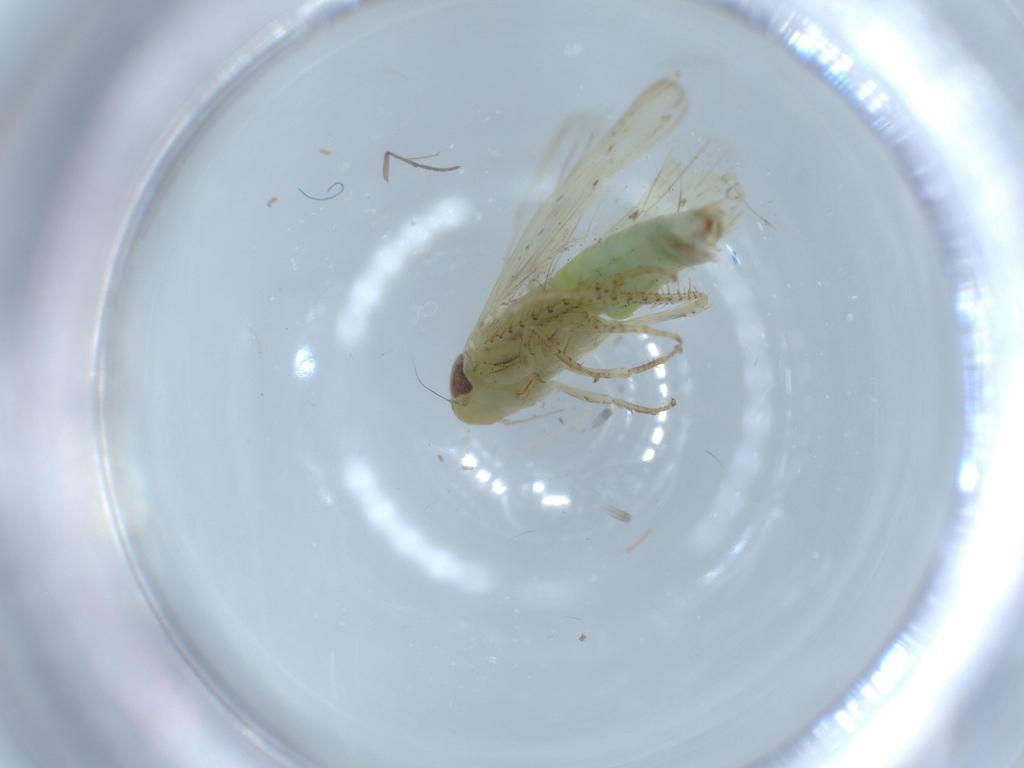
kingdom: Animalia
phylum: Arthropoda
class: Insecta
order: Hemiptera
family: Cicadellidae
